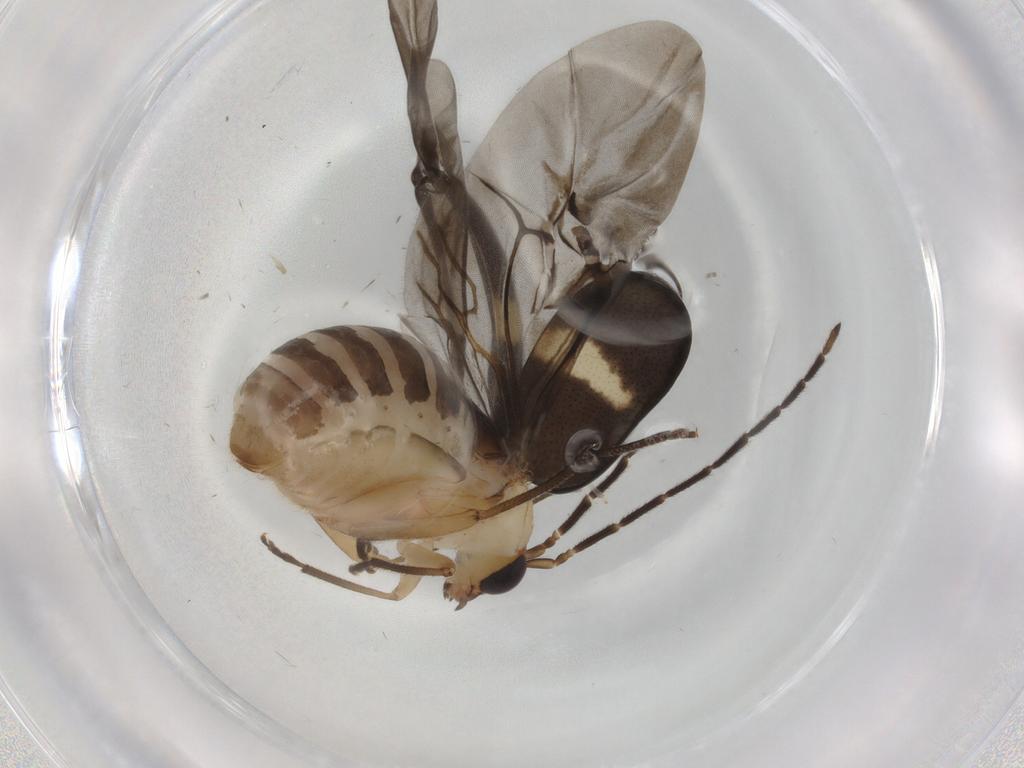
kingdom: Animalia
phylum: Arthropoda
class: Insecta
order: Coleoptera
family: Chrysomelidae
